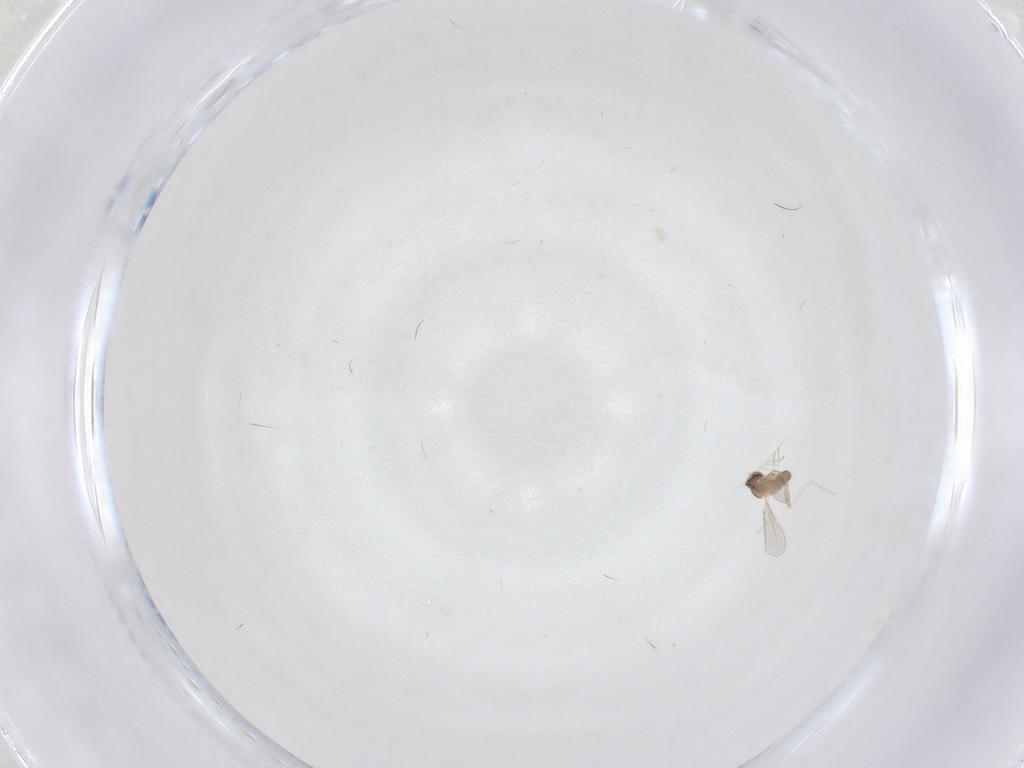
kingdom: Animalia
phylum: Arthropoda
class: Insecta
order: Diptera
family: Cecidomyiidae
